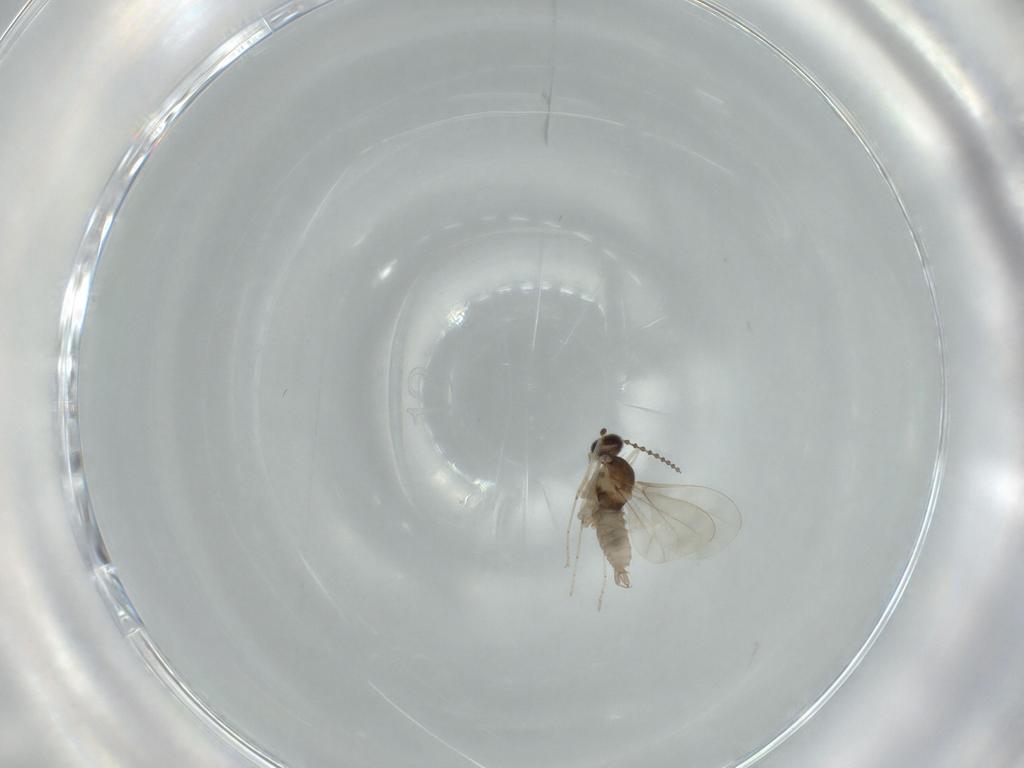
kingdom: Animalia
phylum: Arthropoda
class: Insecta
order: Diptera
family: Cecidomyiidae
